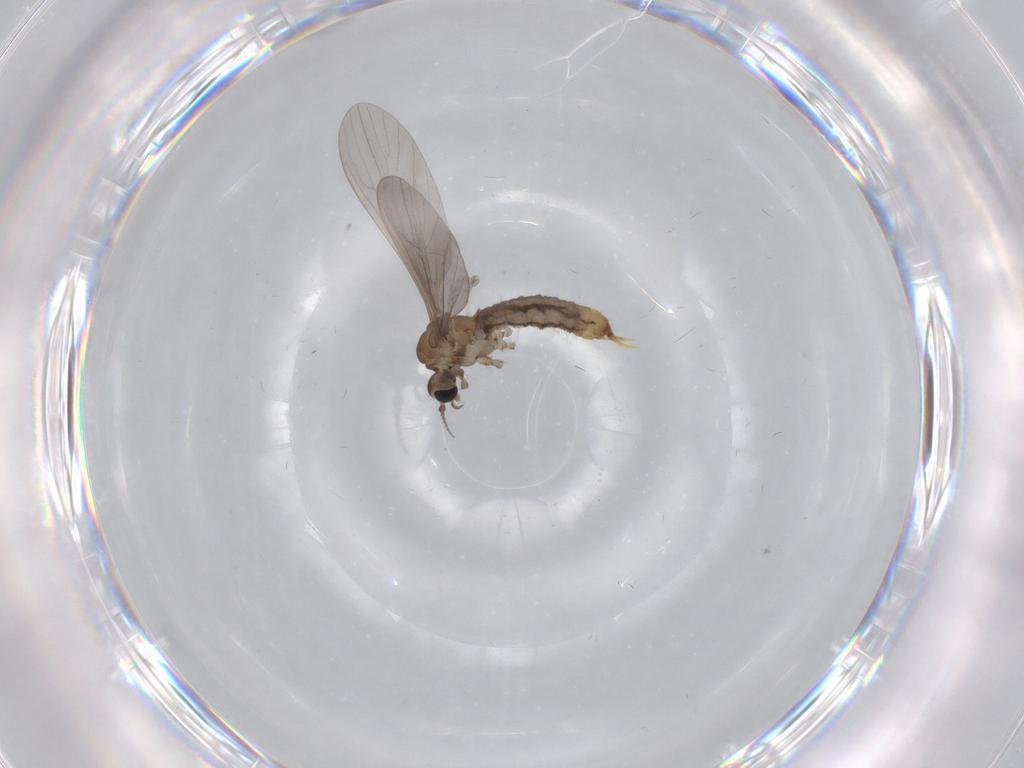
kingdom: Animalia
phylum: Arthropoda
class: Insecta
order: Diptera
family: Limoniidae
